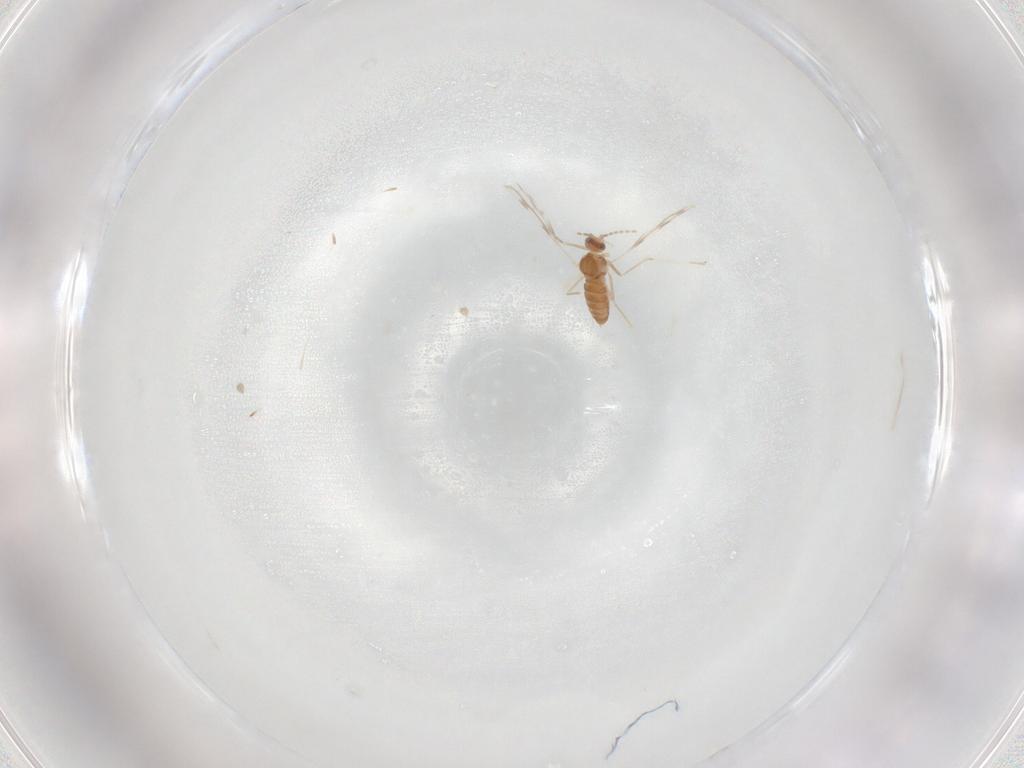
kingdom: Animalia
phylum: Arthropoda
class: Insecta
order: Diptera
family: Cecidomyiidae
